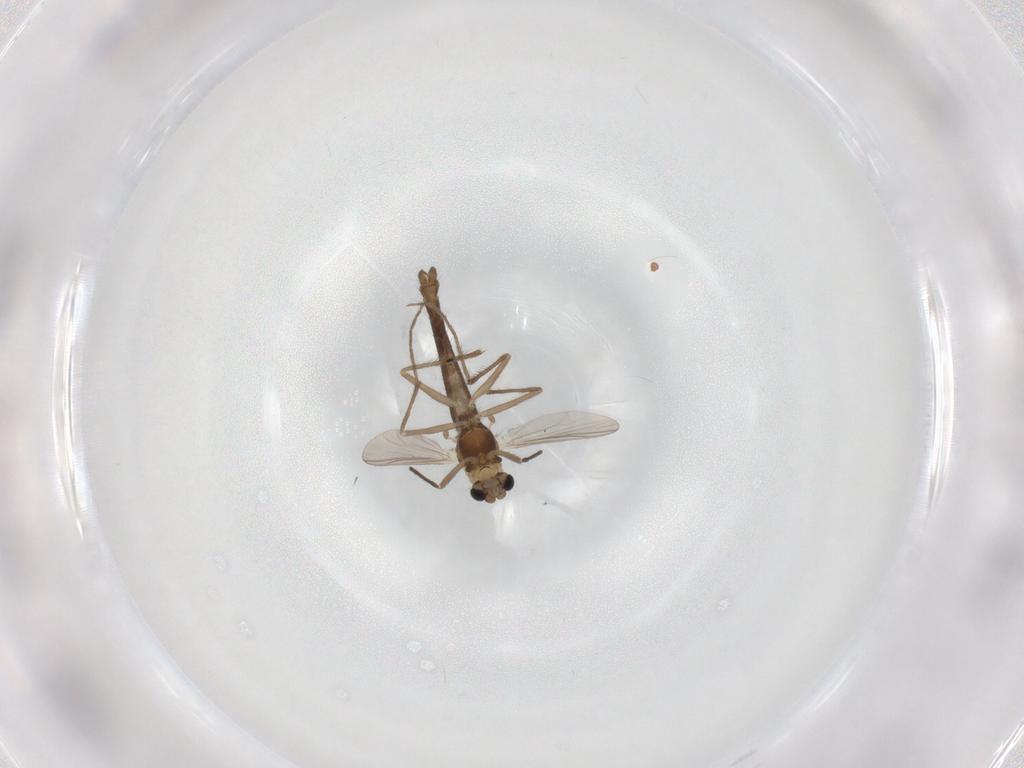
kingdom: Animalia
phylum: Arthropoda
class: Insecta
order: Diptera
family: Chironomidae
